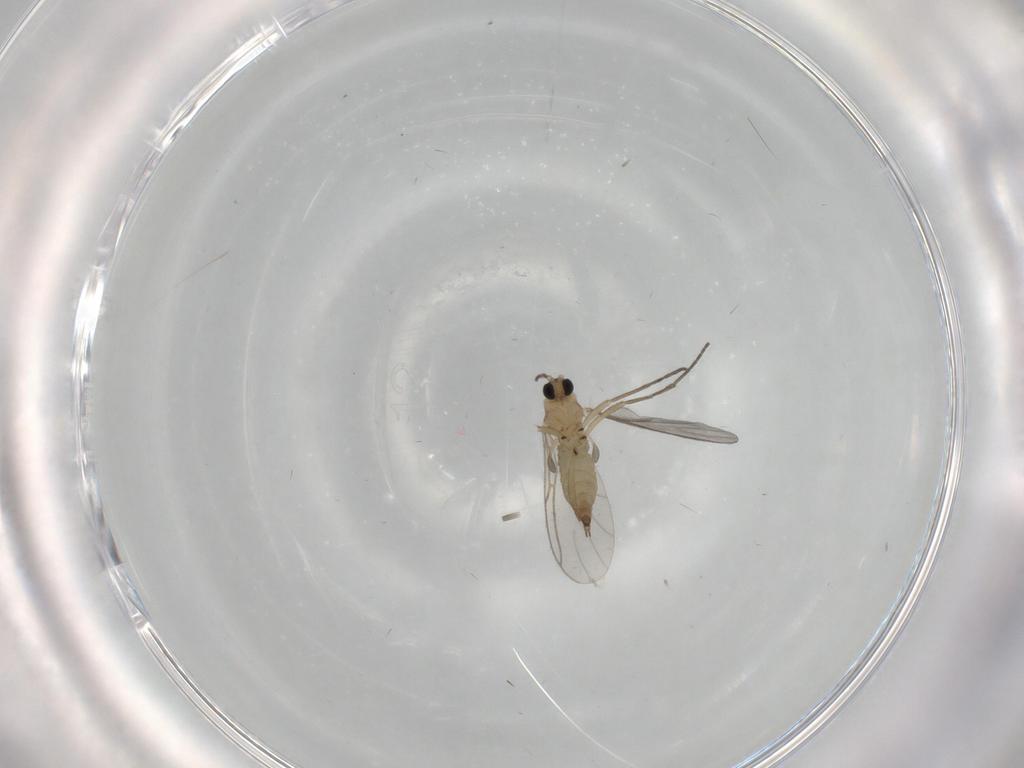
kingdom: Animalia
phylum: Arthropoda
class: Insecta
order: Diptera
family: Sciaridae
